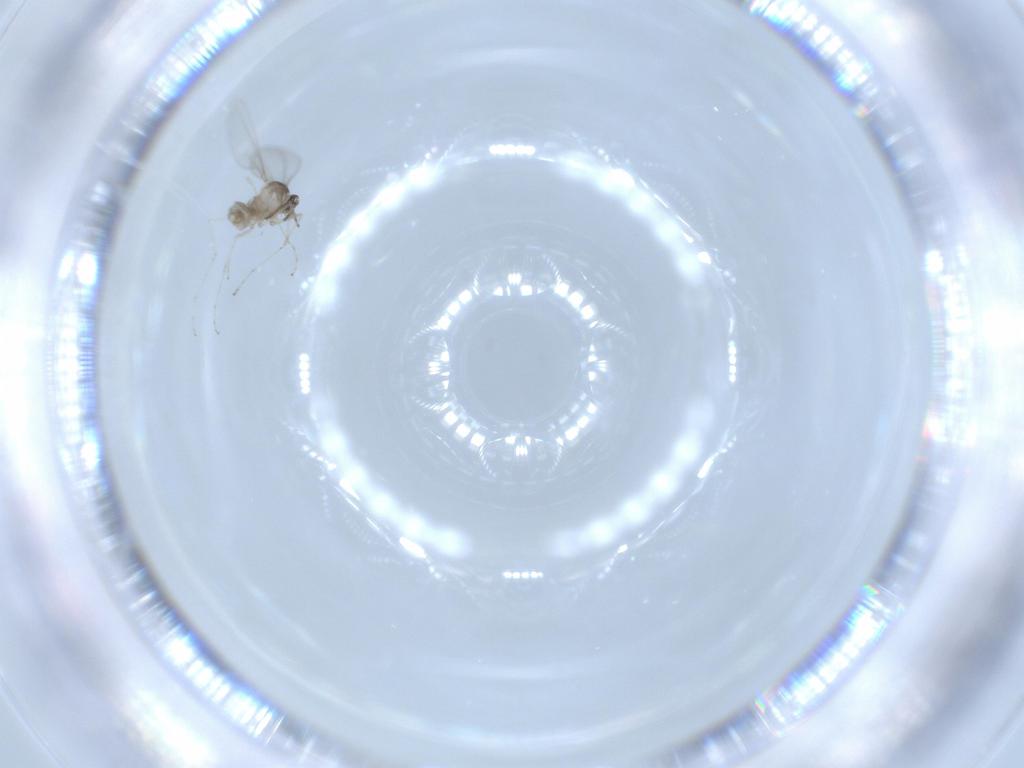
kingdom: Animalia
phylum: Arthropoda
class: Insecta
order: Diptera
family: Cecidomyiidae
